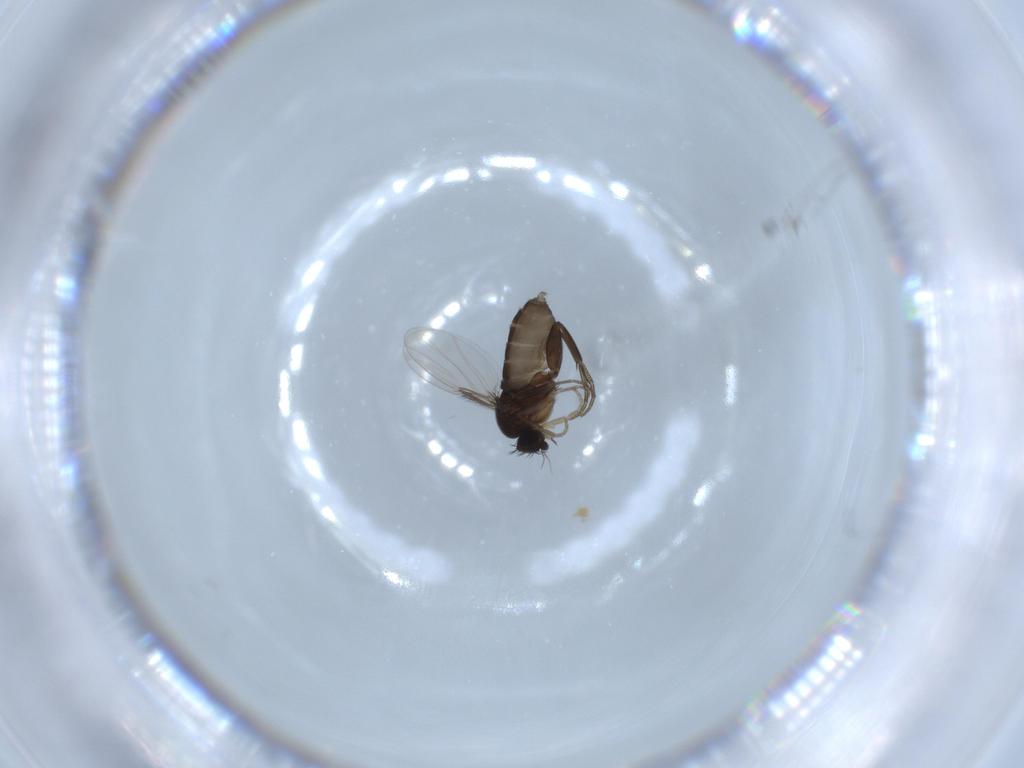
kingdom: Animalia
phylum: Arthropoda
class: Insecta
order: Diptera
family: Phoridae
